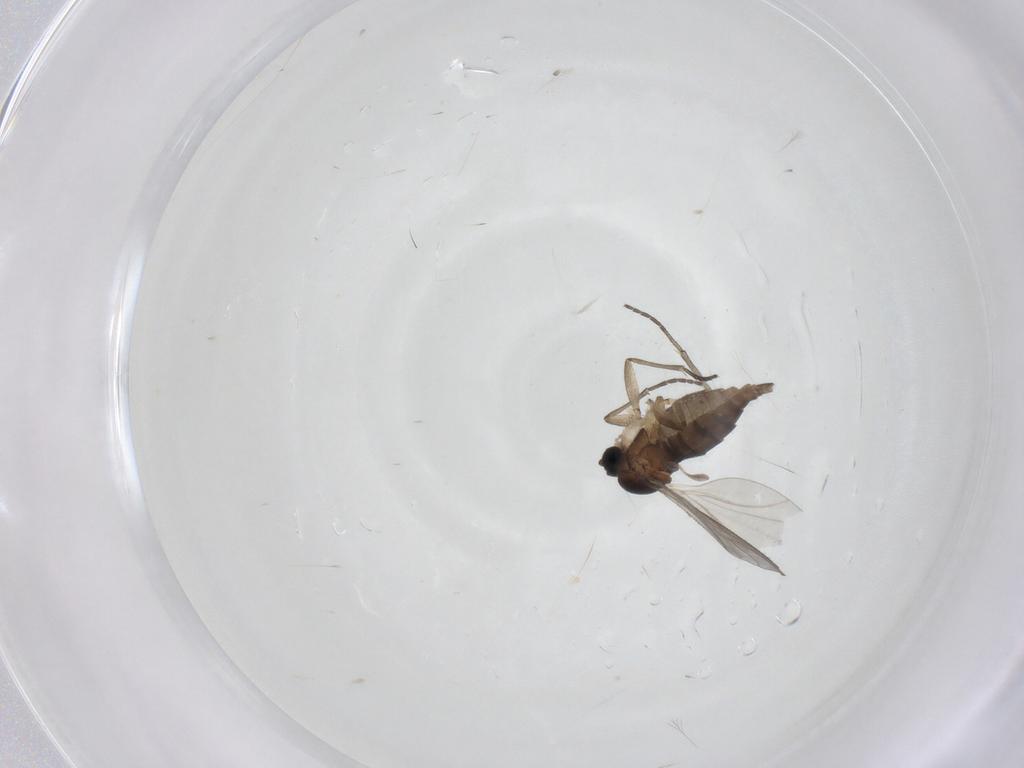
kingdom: Animalia
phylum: Arthropoda
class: Insecta
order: Diptera
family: Sciaridae
